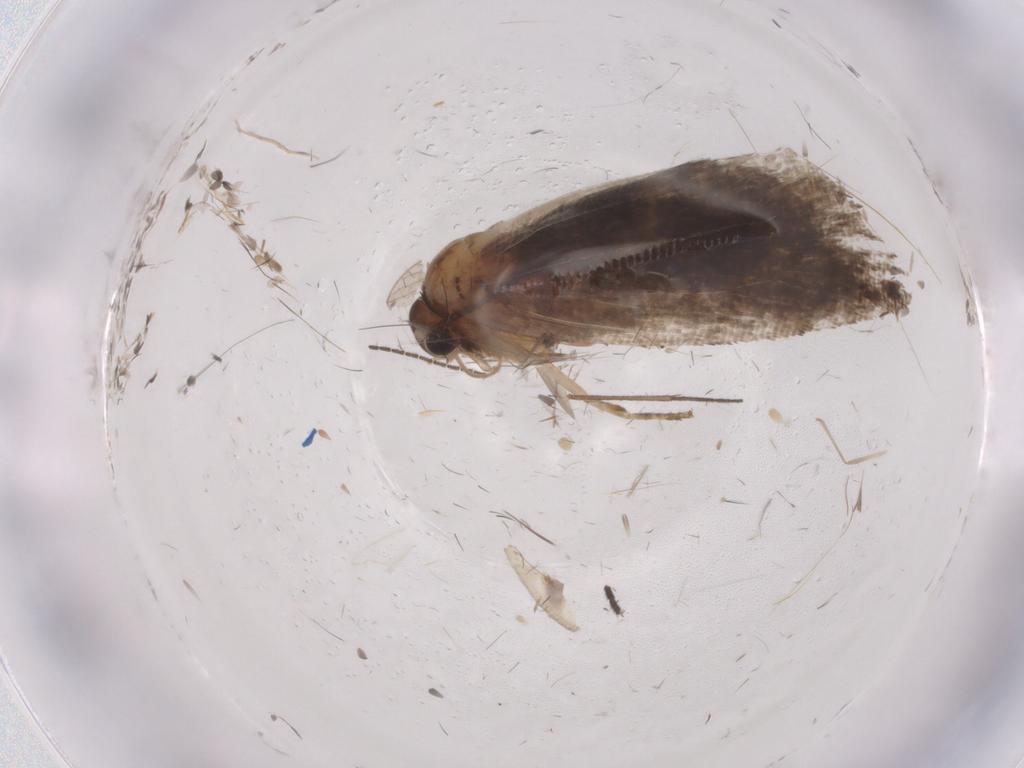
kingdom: Animalia
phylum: Arthropoda
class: Insecta
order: Lepidoptera
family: Tortricidae
